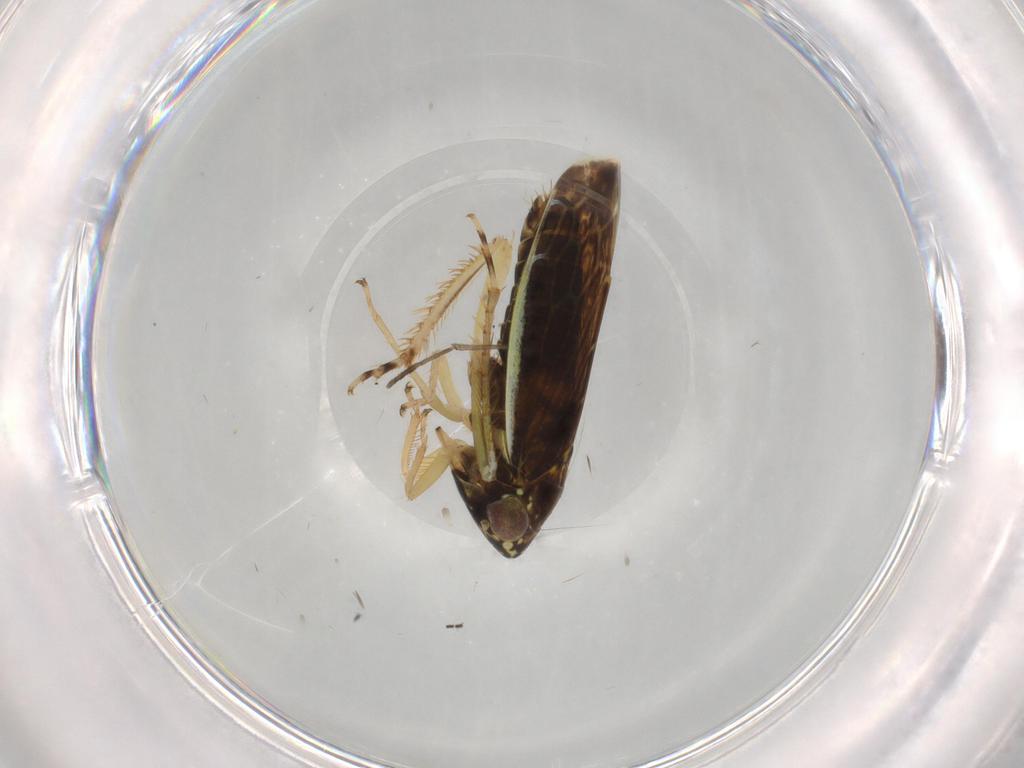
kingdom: Animalia
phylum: Arthropoda
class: Insecta
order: Hemiptera
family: Cicadellidae
